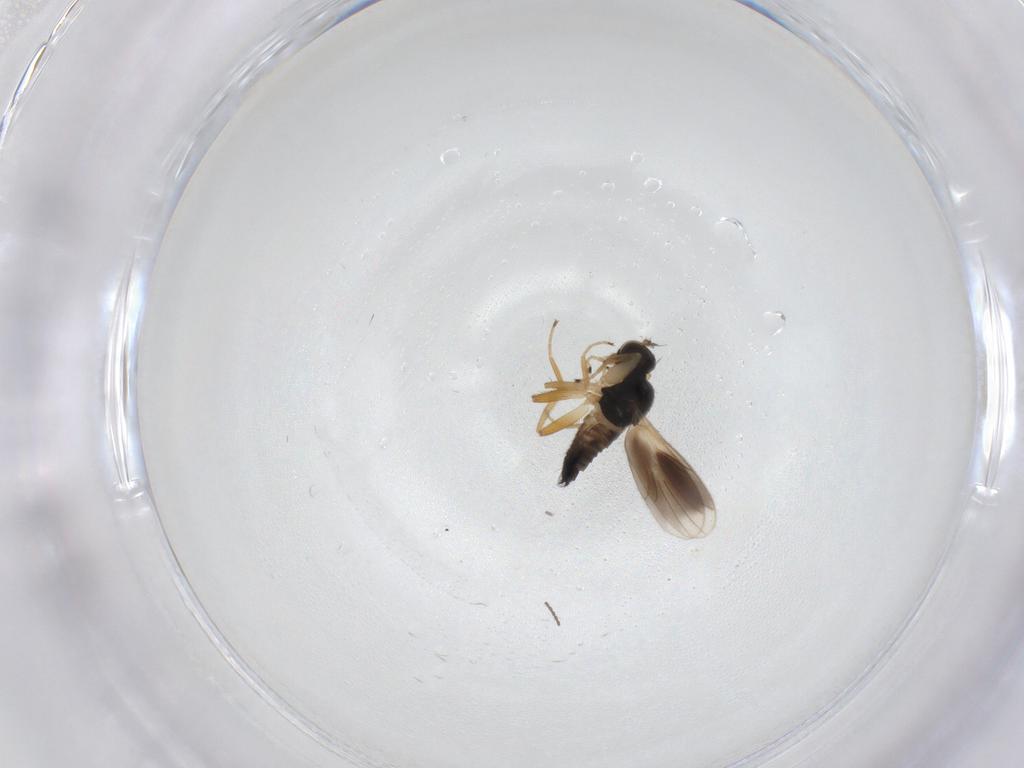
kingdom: Animalia
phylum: Arthropoda
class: Insecta
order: Diptera
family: Hybotidae
